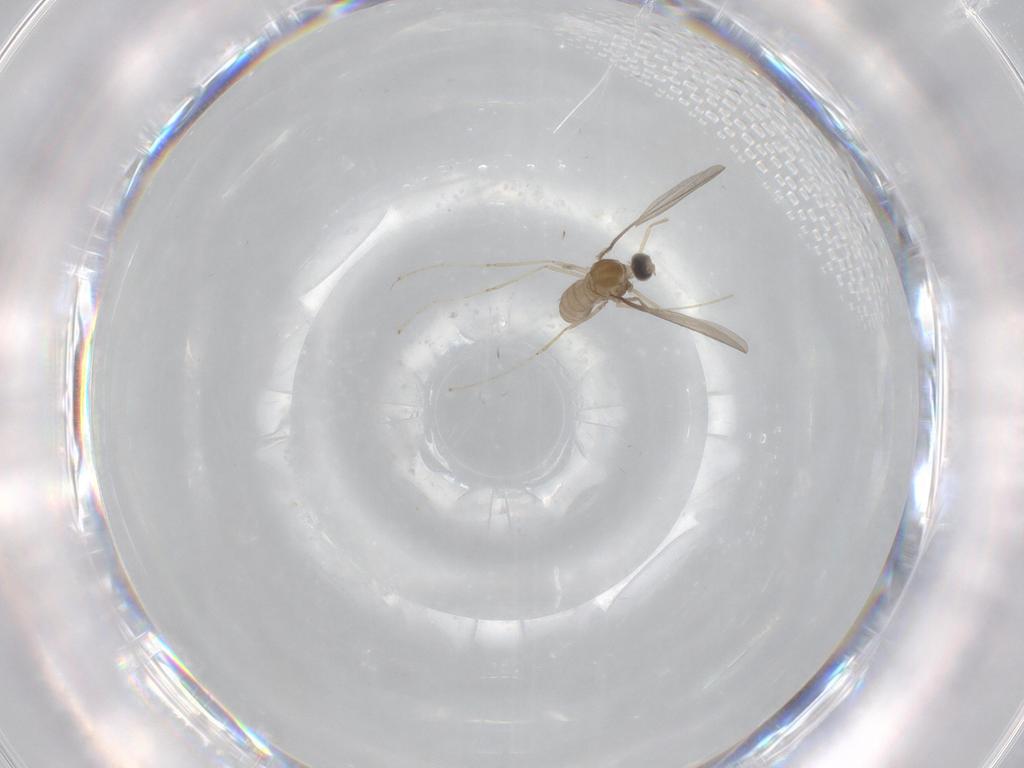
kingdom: Animalia
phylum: Arthropoda
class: Insecta
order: Diptera
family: Cecidomyiidae
